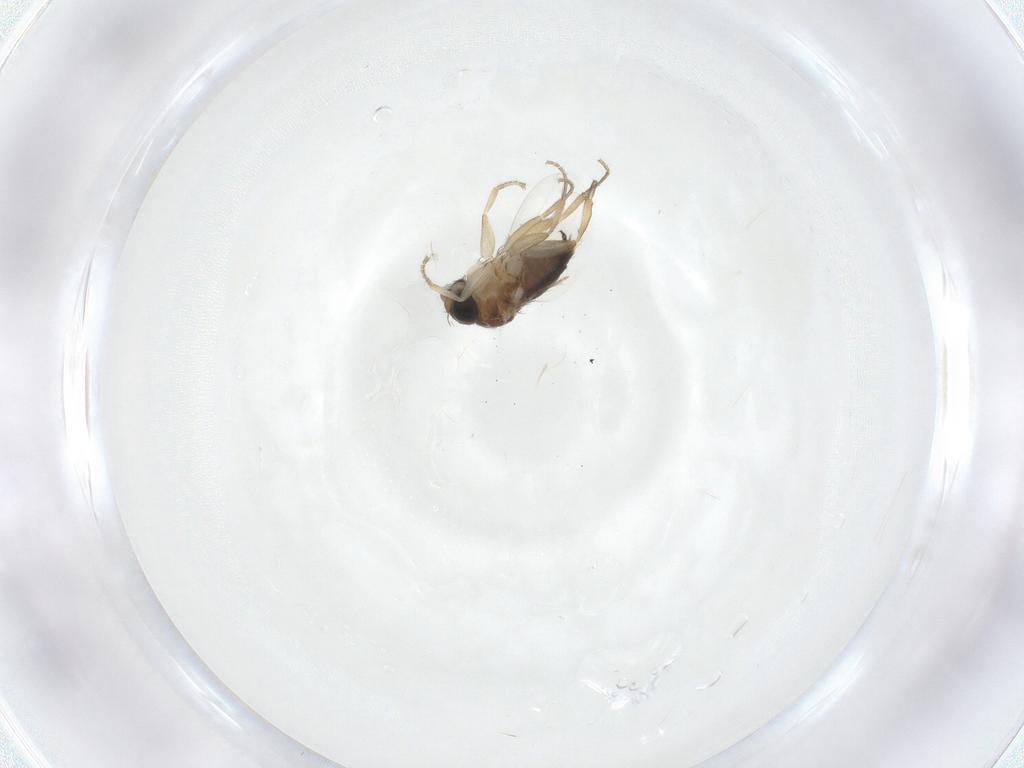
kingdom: Animalia
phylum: Arthropoda
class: Insecta
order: Diptera
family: Phoridae
